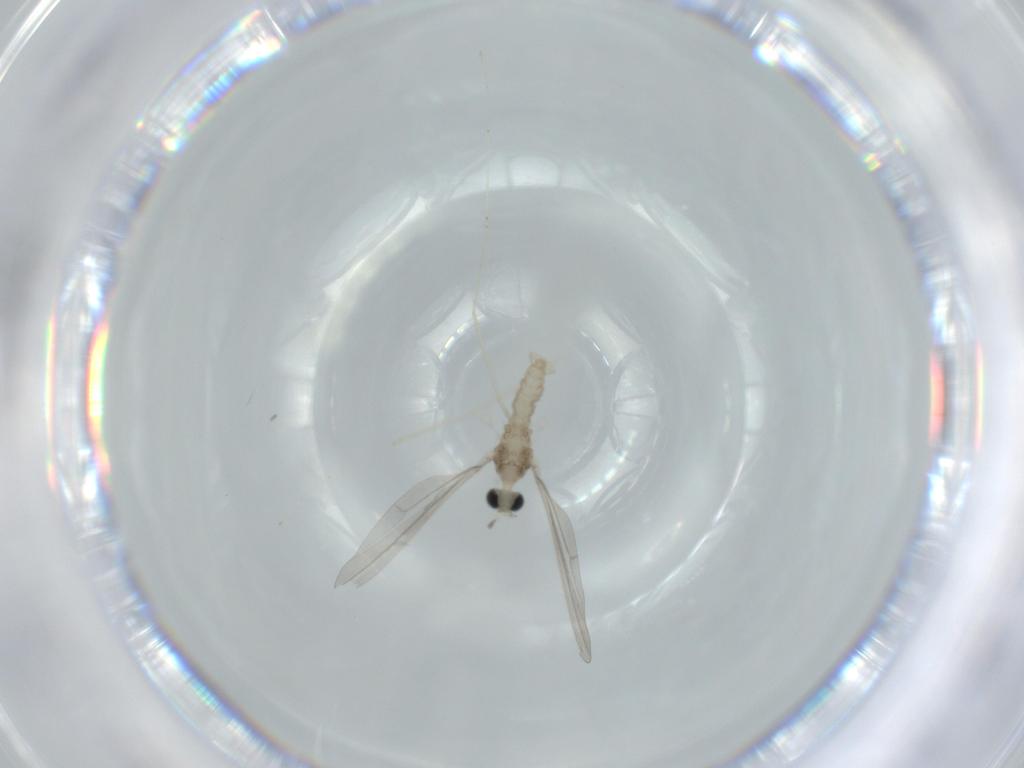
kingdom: Animalia
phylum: Arthropoda
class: Insecta
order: Diptera
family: Cecidomyiidae
